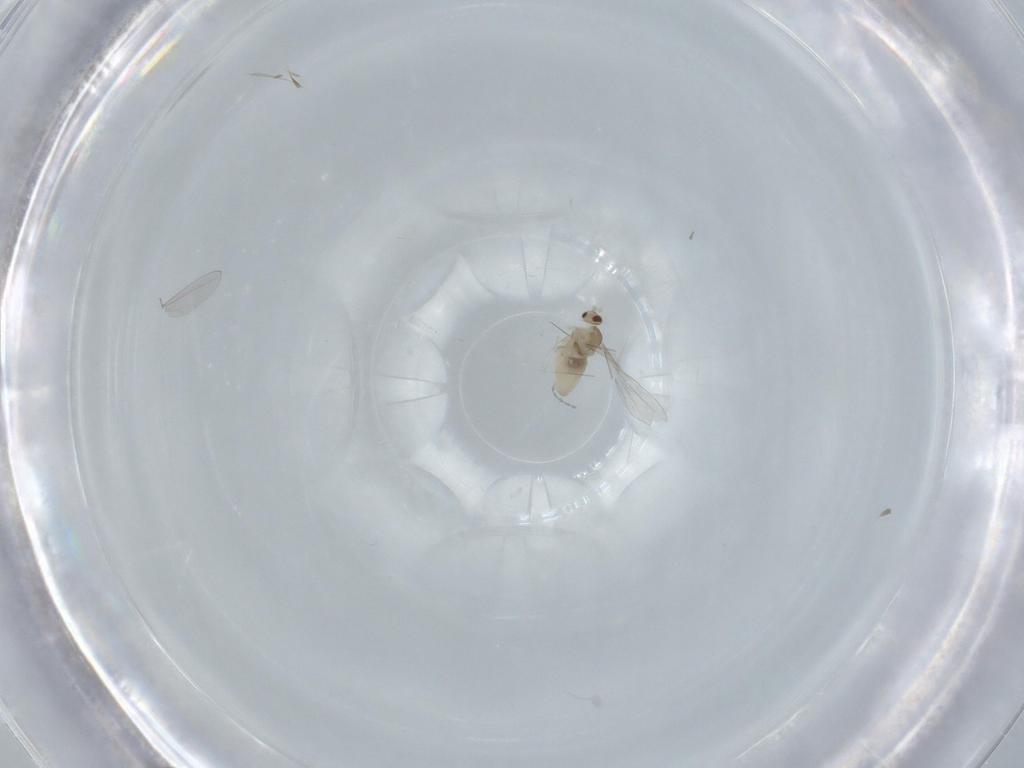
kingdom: Animalia
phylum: Arthropoda
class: Insecta
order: Diptera
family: Cecidomyiidae
